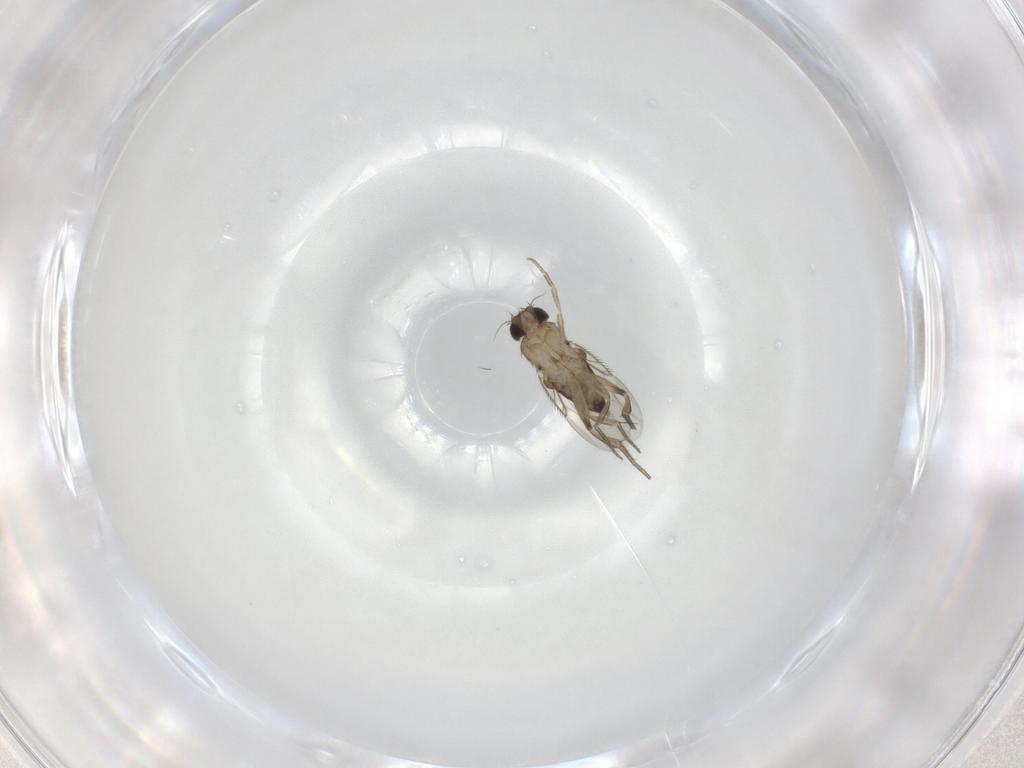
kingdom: Animalia
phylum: Arthropoda
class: Insecta
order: Diptera
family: Phoridae
